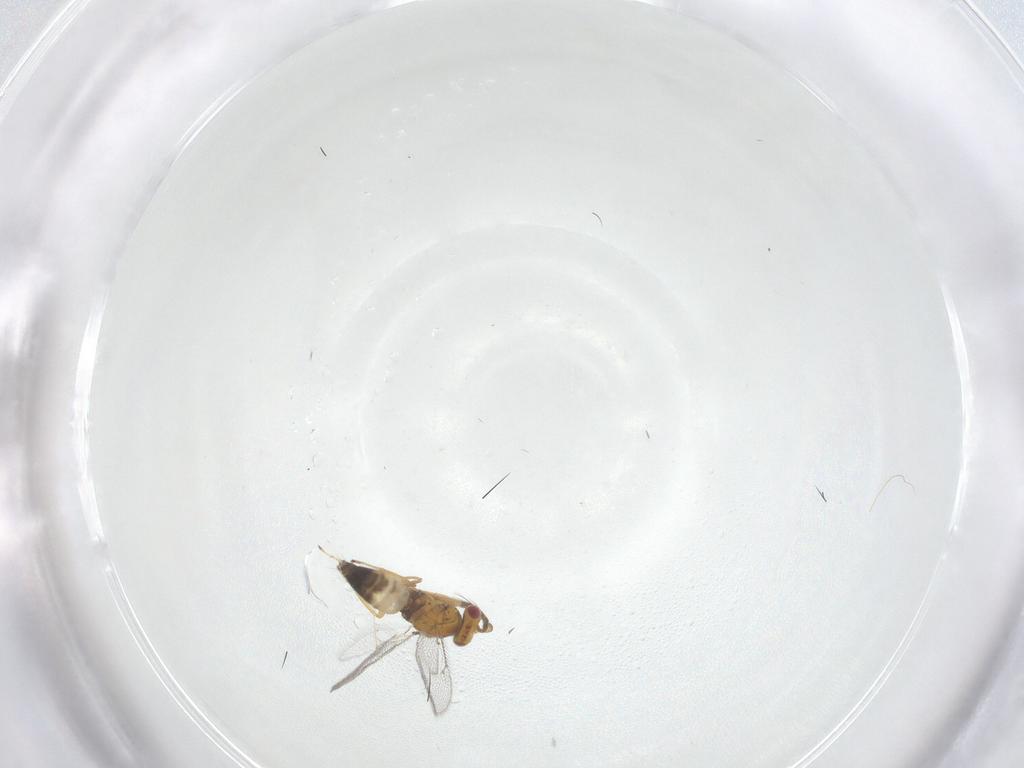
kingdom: Animalia
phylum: Arthropoda
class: Insecta
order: Hymenoptera
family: Eulophidae
